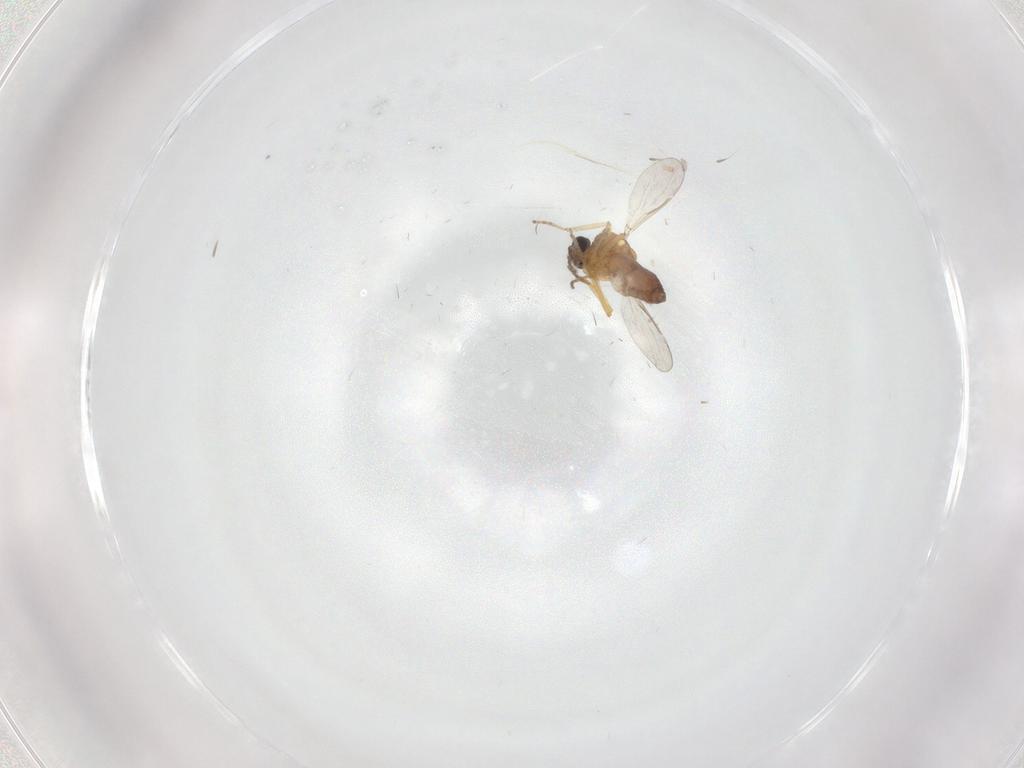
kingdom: Animalia
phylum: Arthropoda
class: Insecta
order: Diptera
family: Ceratopogonidae
